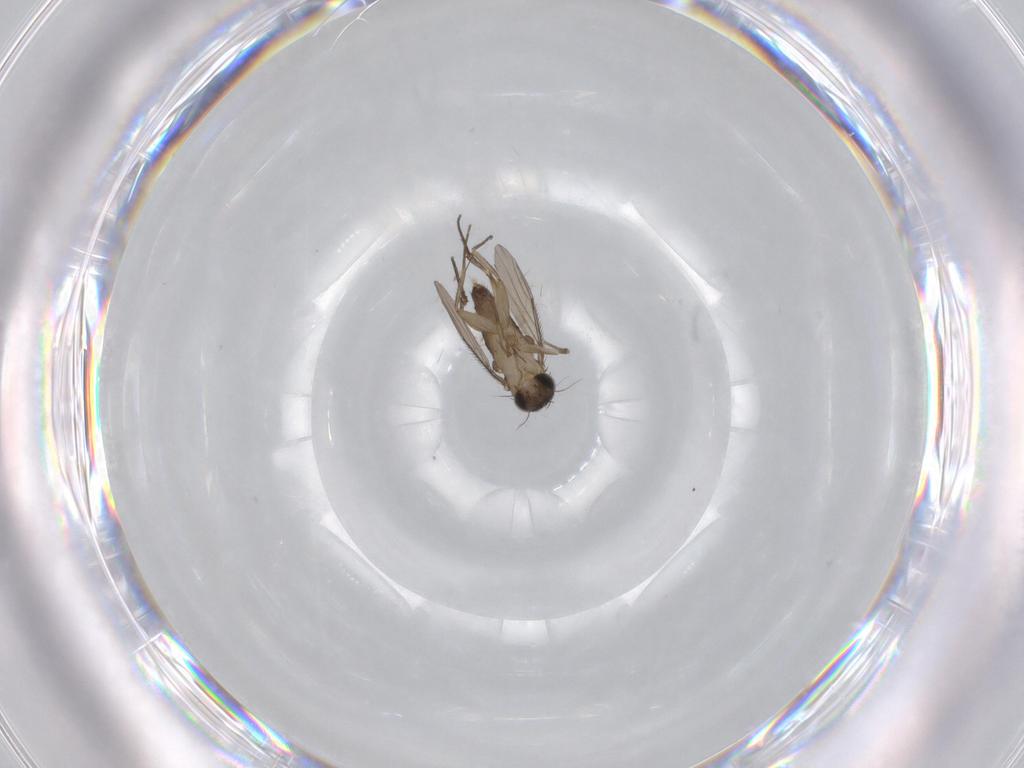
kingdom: Animalia
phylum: Arthropoda
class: Insecta
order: Diptera
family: Phoridae
